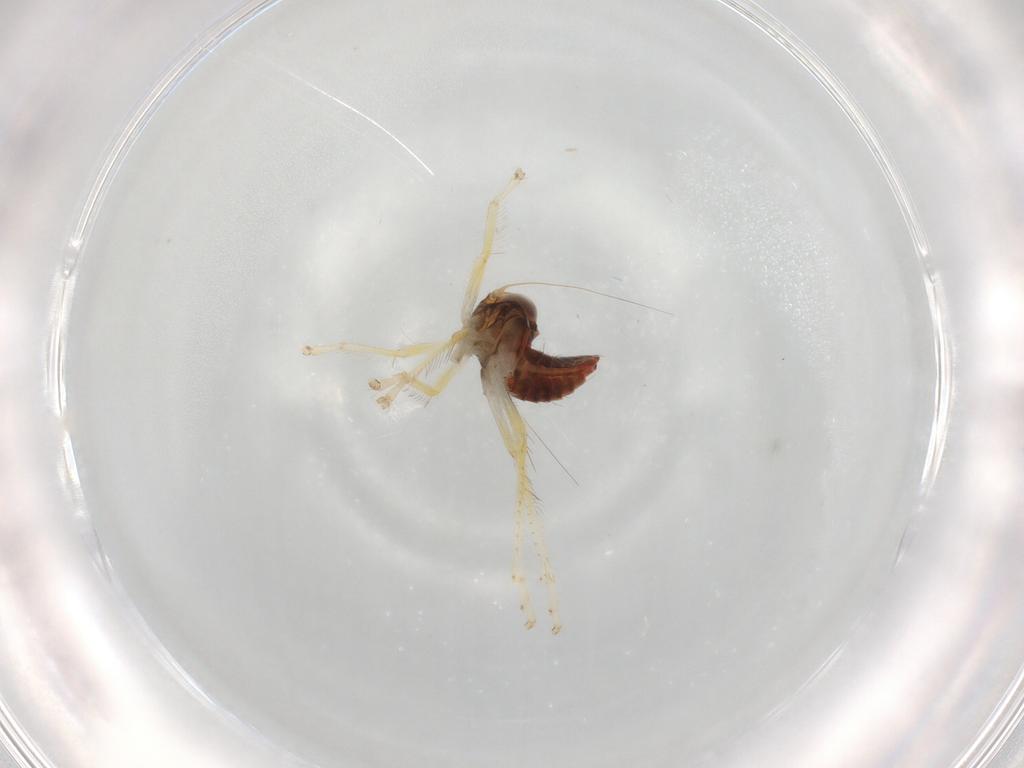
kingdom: Animalia
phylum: Arthropoda
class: Insecta
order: Hemiptera
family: Cicadellidae
